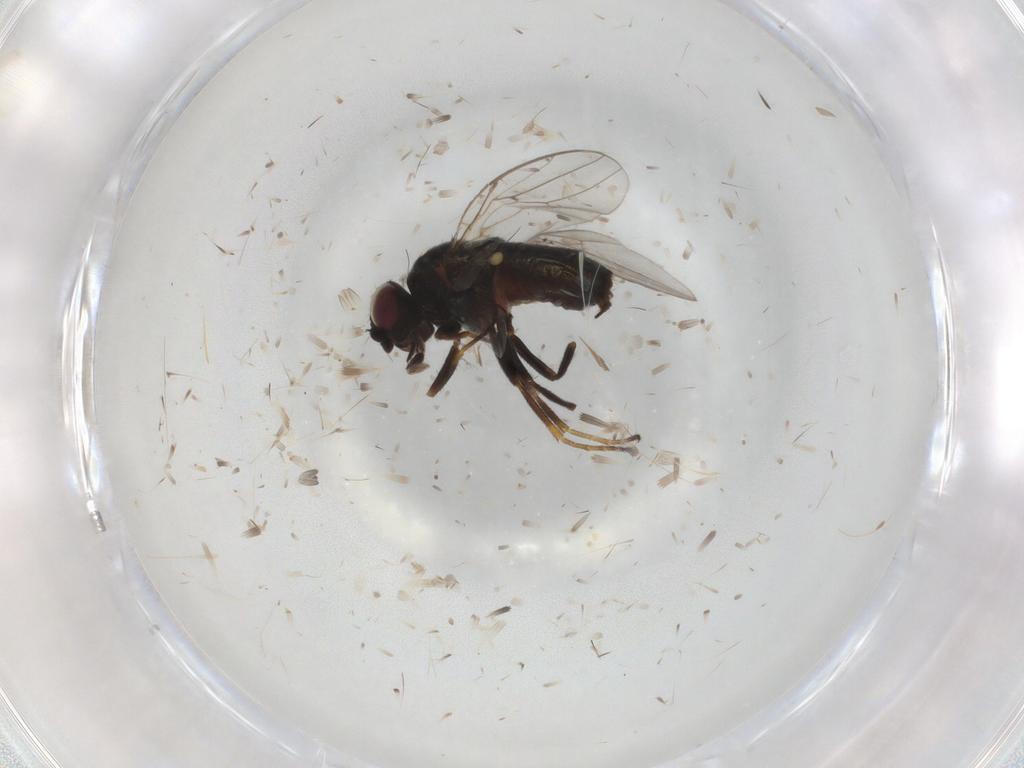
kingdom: Animalia
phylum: Arthropoda
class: Insecta
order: Diptera
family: Chloropidae
